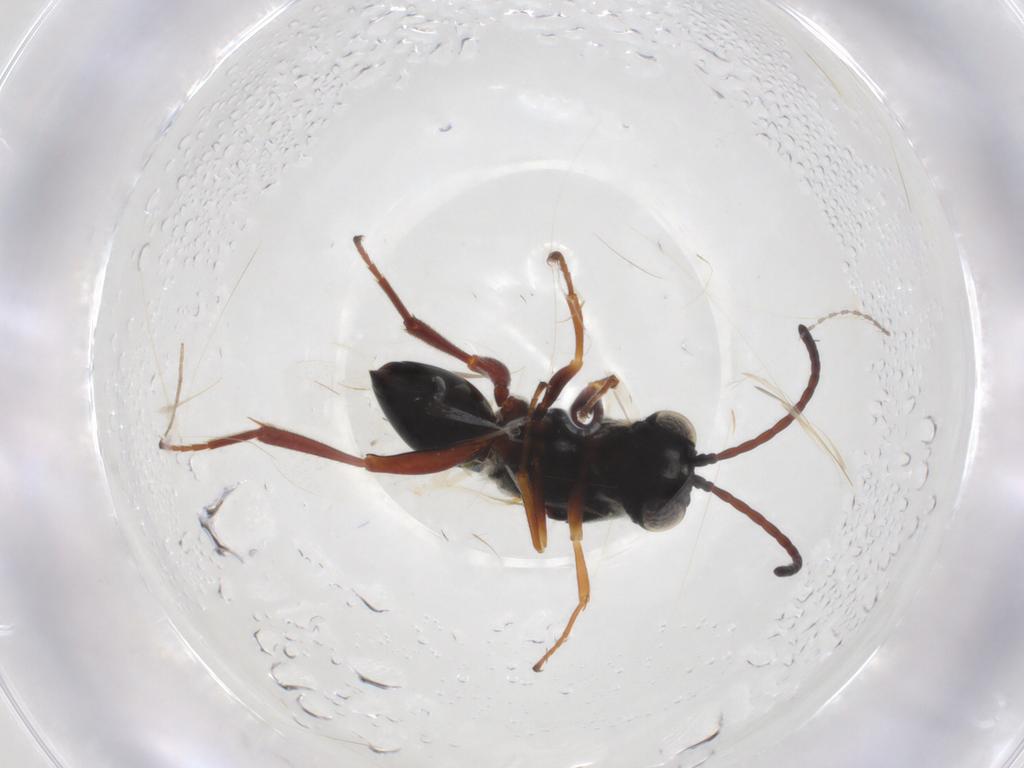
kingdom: Animalia
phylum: Arthropoda
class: Insecta
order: Hymenoptera
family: Figitidae
